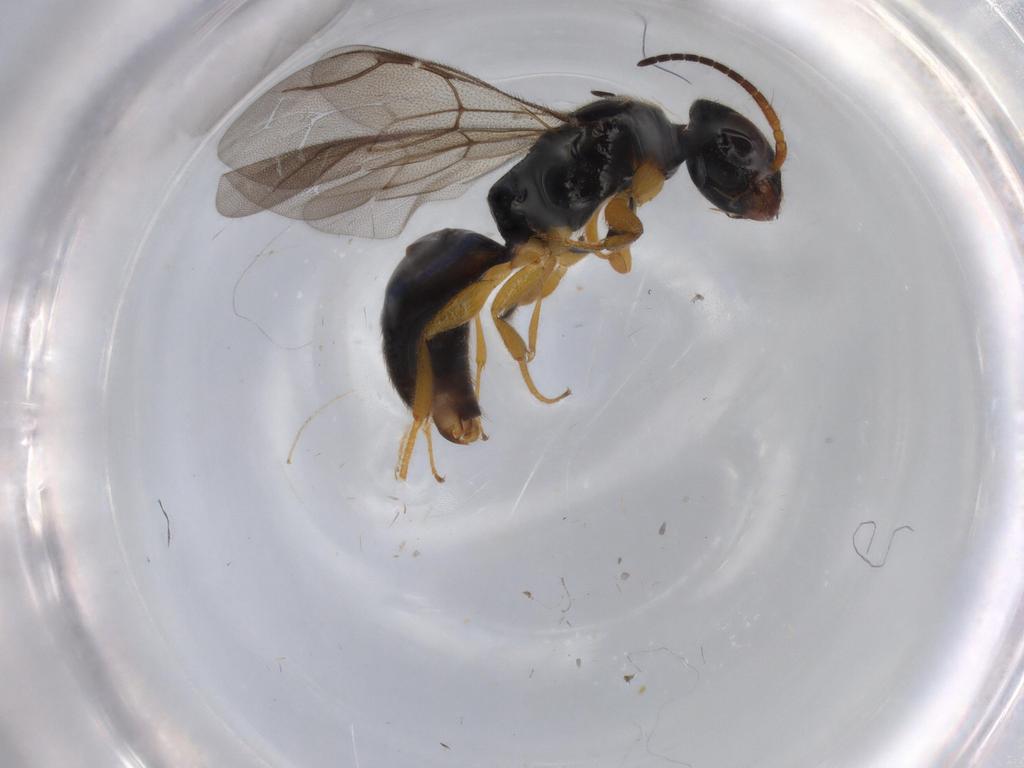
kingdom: Animalia
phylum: Arthropoda
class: Insecta
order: Hymenoptera
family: Bethylidae
